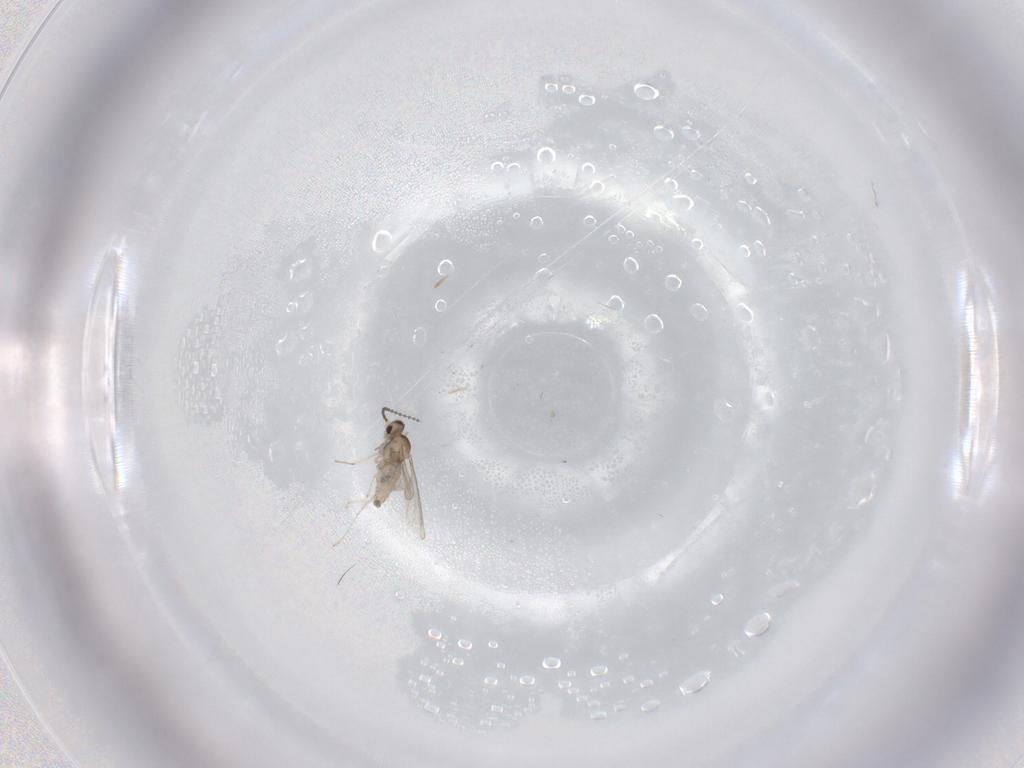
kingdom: Animalia
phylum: Arthropoda
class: Insecta
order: Diptera
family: Cecidomyiidae
